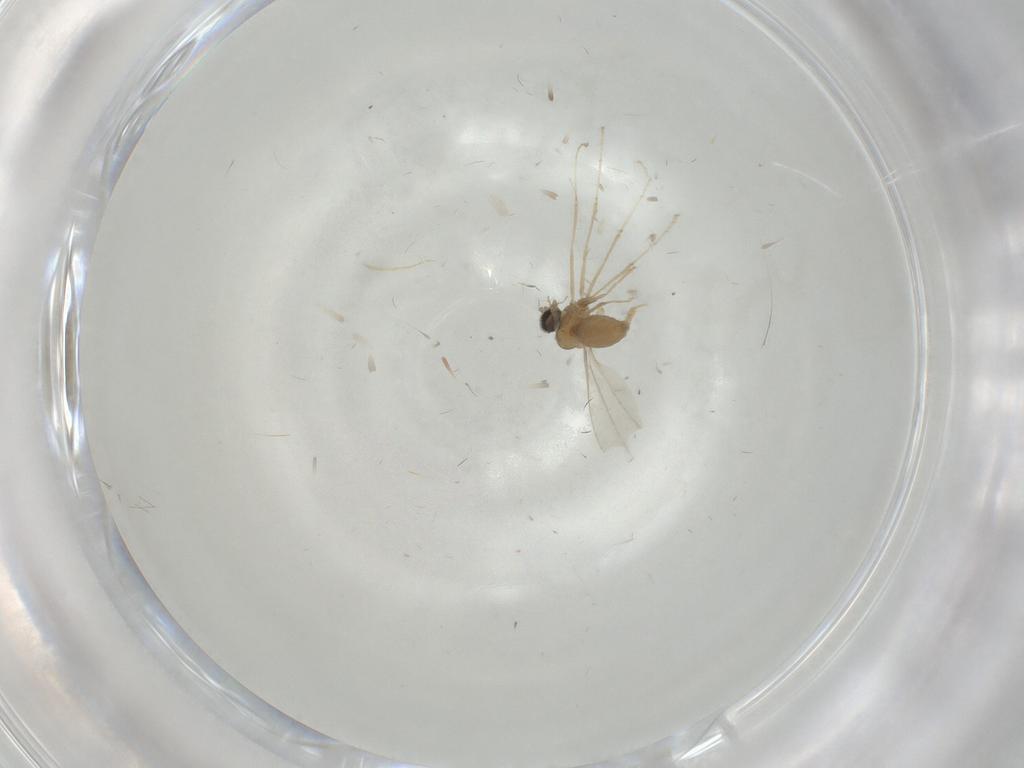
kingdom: Animalia
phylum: Arthropoda
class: Insecta
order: Diptera
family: Cecidomyiidae
